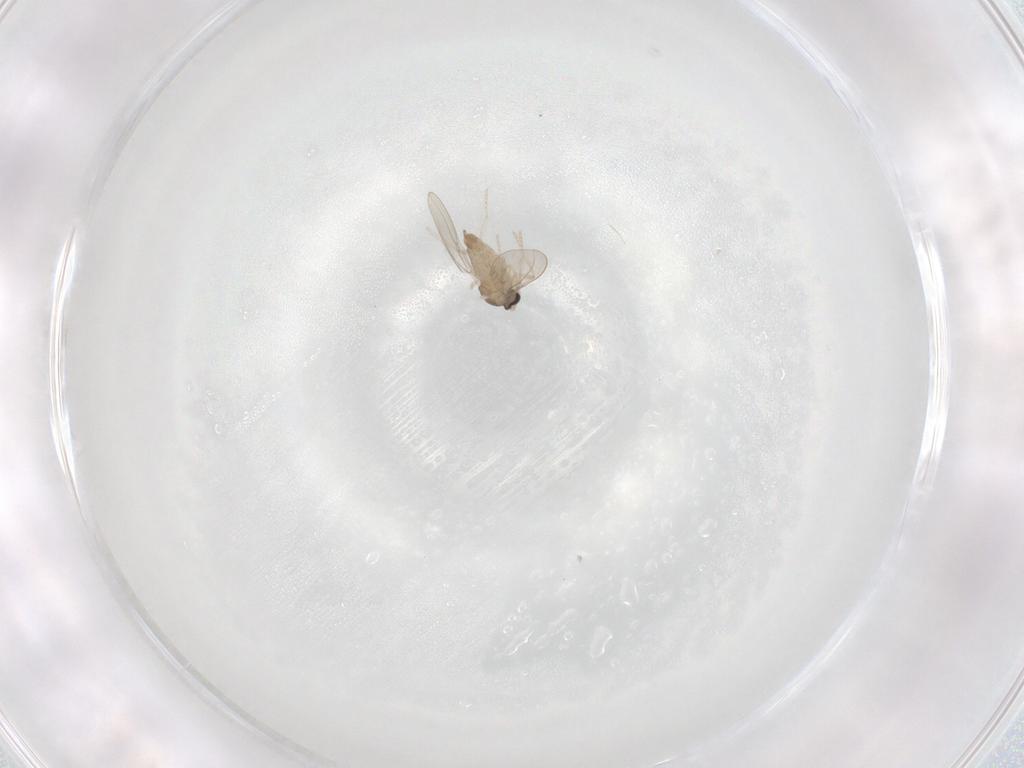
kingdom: Animalia
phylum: Arthropoda
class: Insecta
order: Diptera
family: Cecidomyiidae
